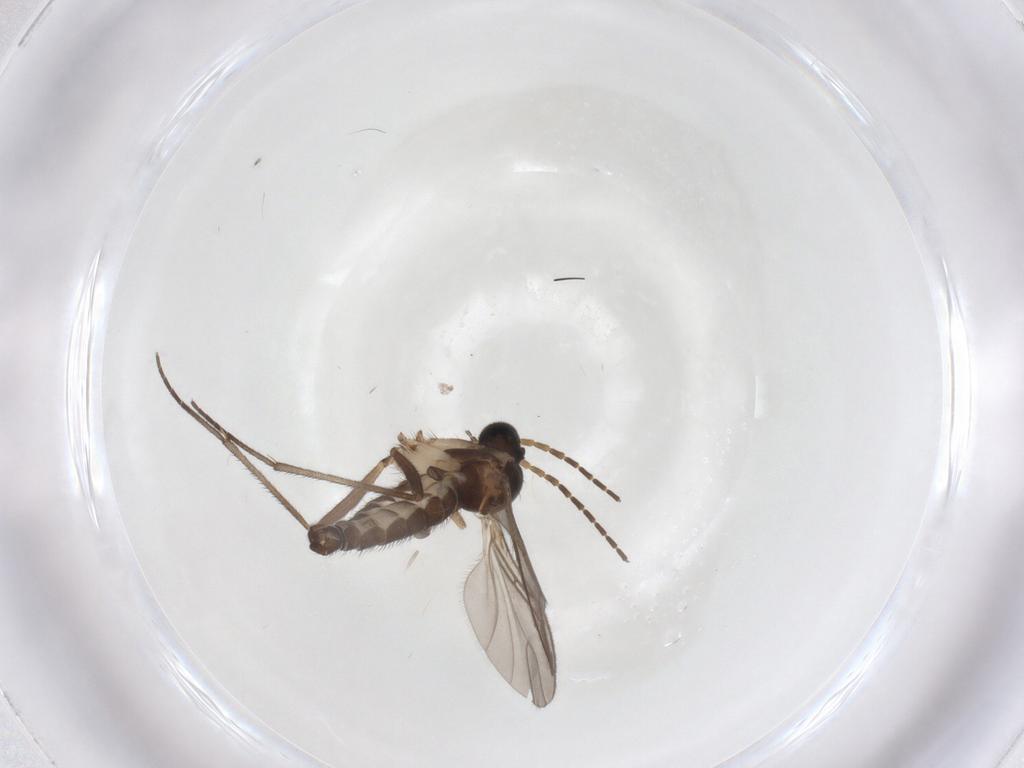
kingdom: Animalia
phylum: Arthropoda
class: Insecta
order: Diptera
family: Sciaridae
